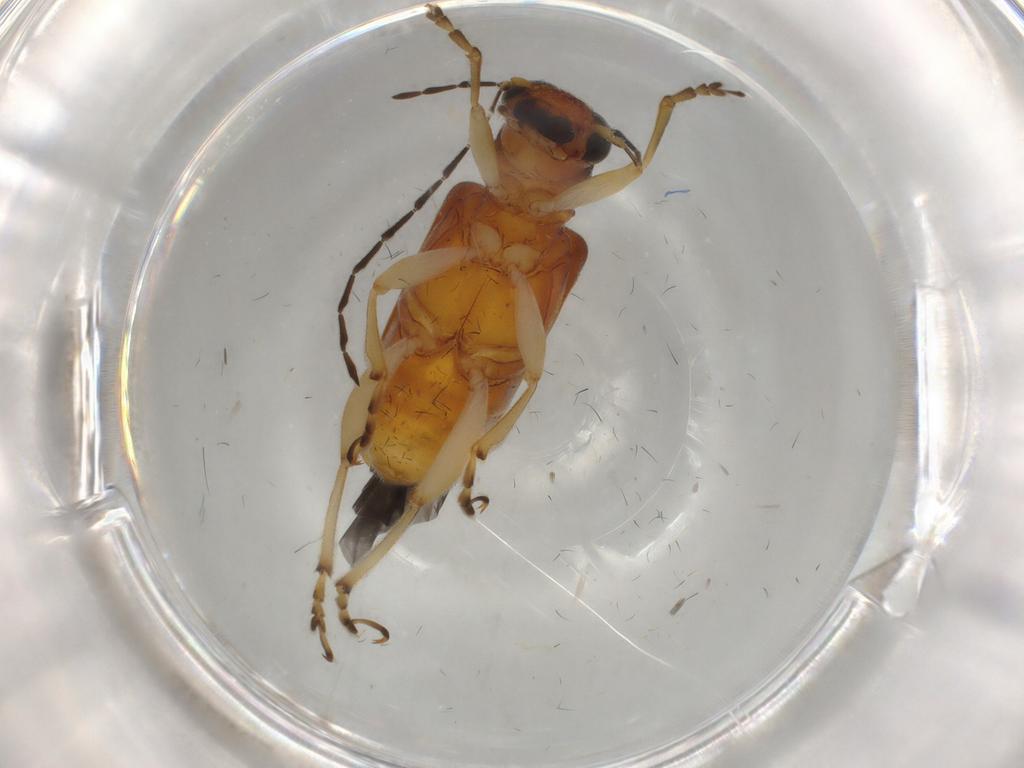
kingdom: Animalia
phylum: Arthropoda
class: Insecta
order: Coleoptera
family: Chrysomelidae
